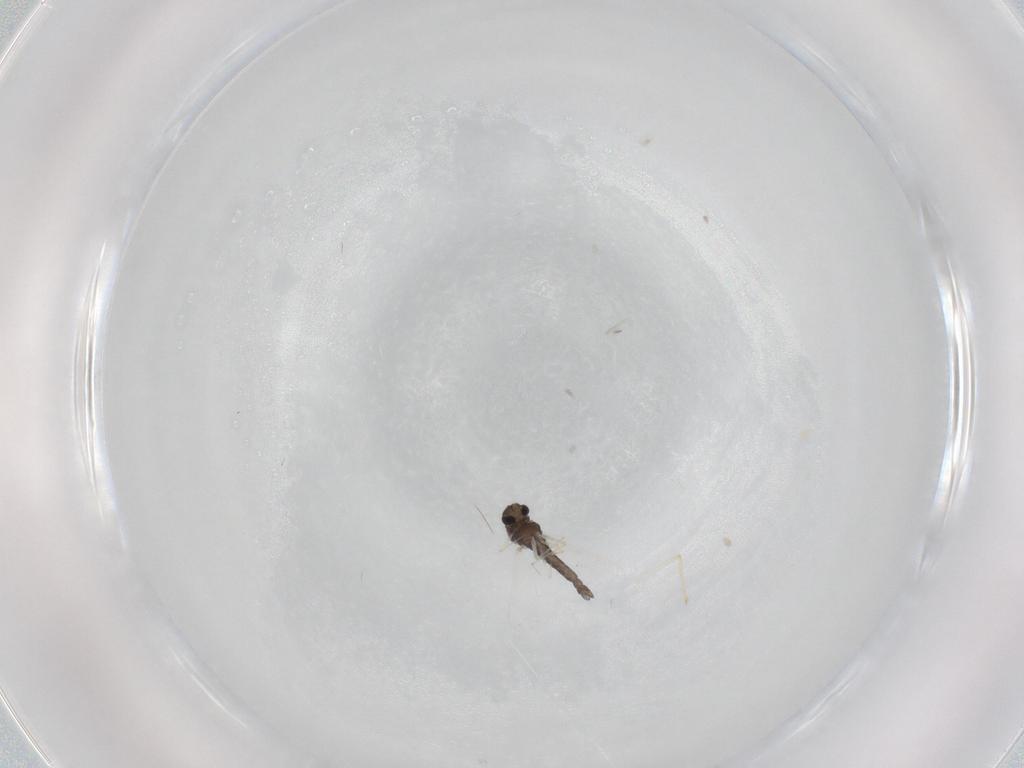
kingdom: Animalia
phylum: Arthropoda
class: Insecta
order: Diptera
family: Chironomidae
